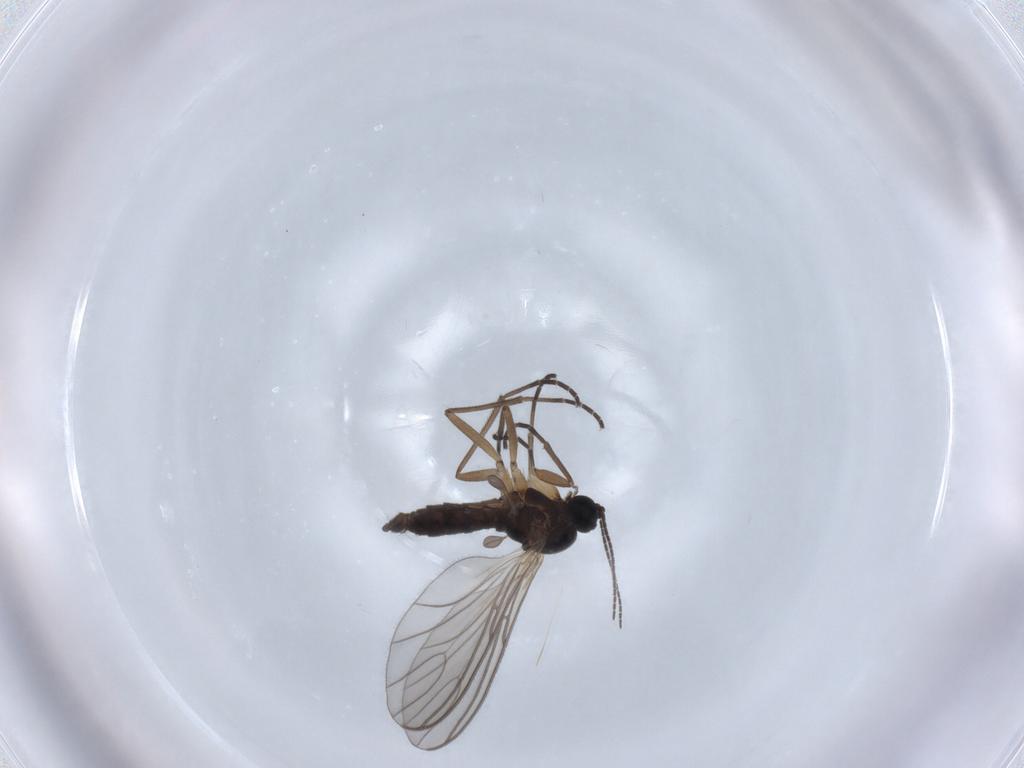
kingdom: Animalia
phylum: Arthropoda
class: Insecta
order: Diptera
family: Sciaridae
